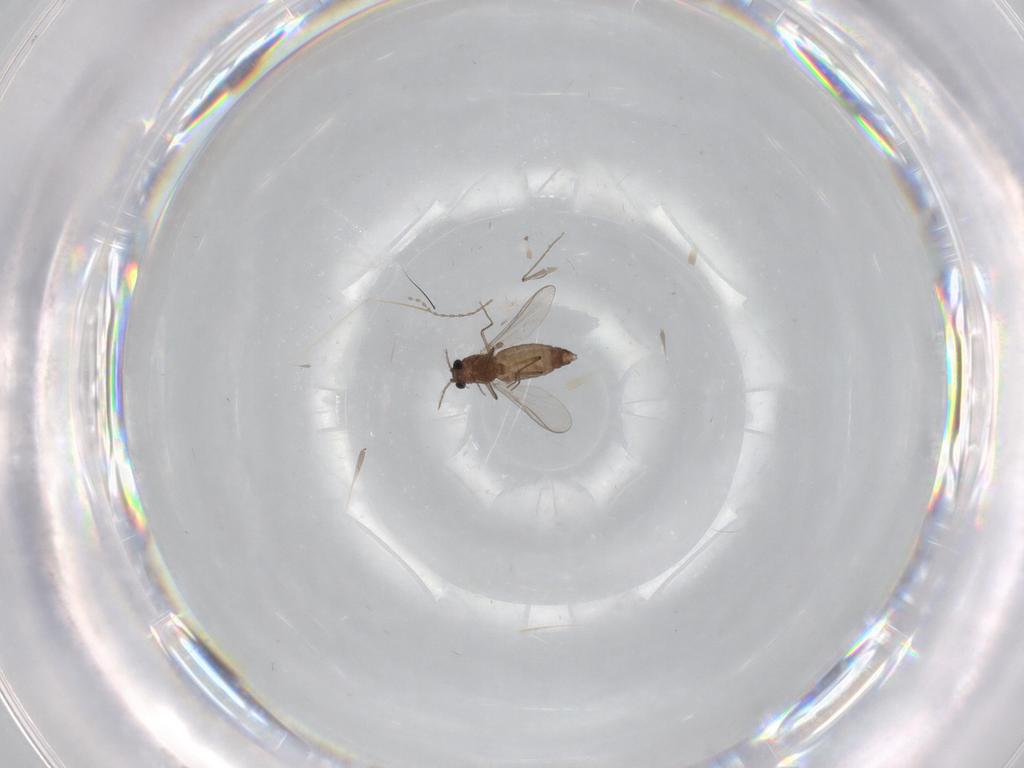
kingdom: Animalia
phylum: Arthropoda
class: Insecta
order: Diptera
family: Chironomidae
